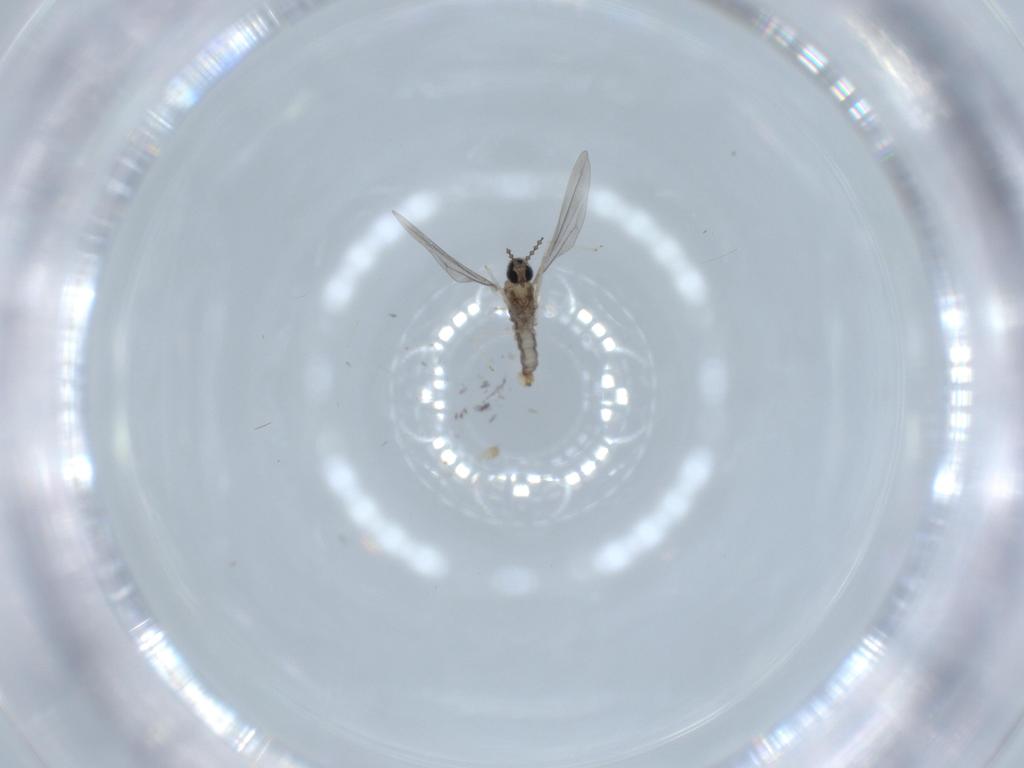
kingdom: Animalia
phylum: Arthropoda
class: Insecta
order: Diptera
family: Cecidomyiidae
